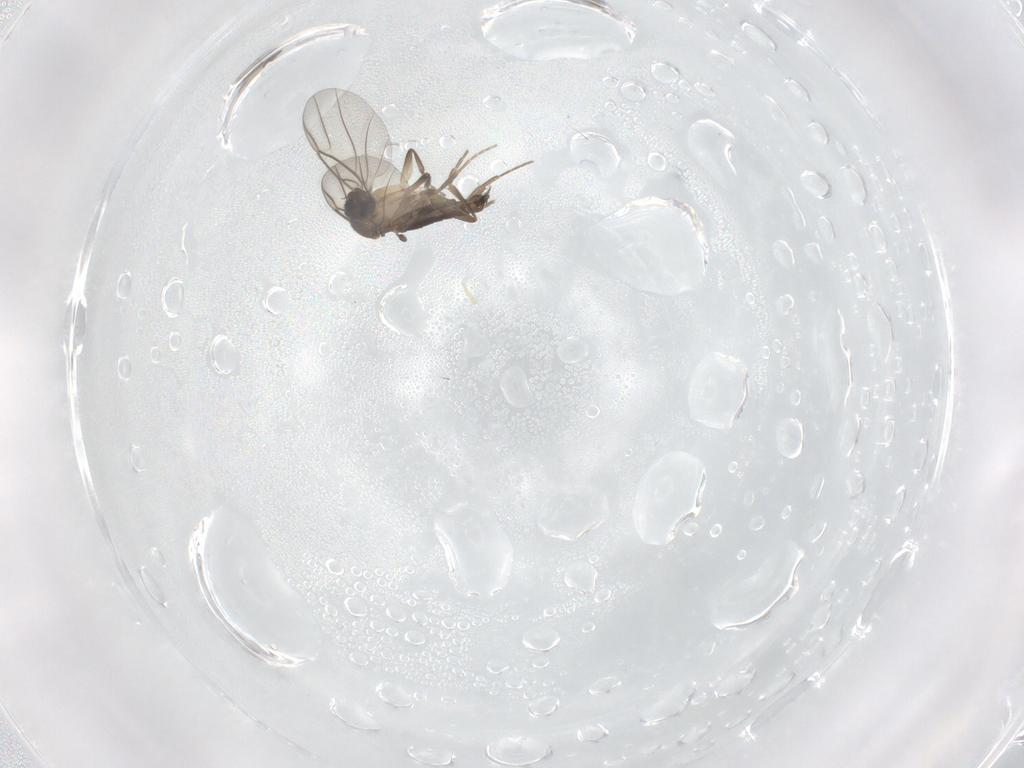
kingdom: Animalia
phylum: Arthropoda
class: Insecta
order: Diptera
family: Phoridae
